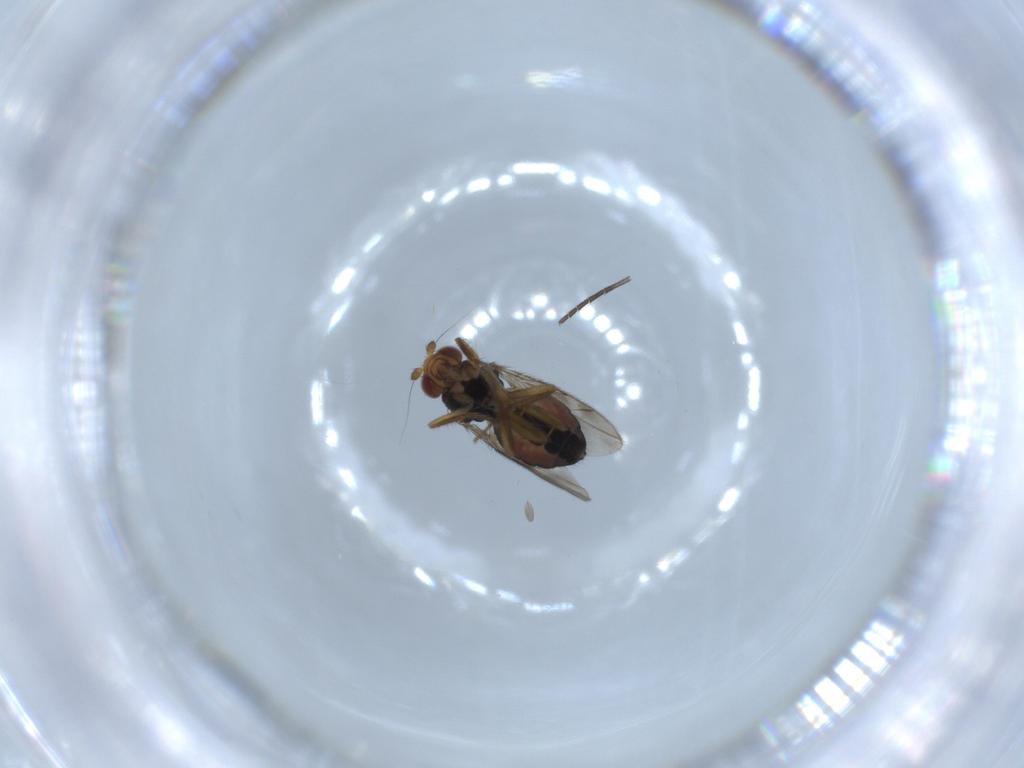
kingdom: Animalia
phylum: Arthropoda
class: Insecta
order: Diptera
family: Sphaeroceridae
